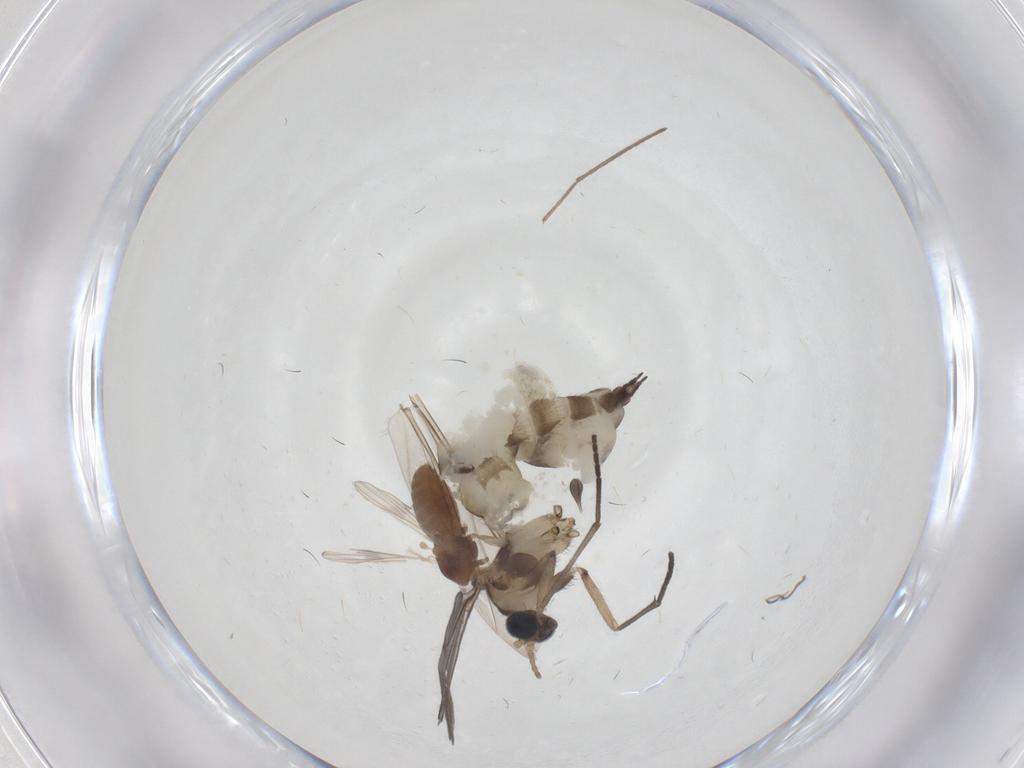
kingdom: Animalia
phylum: Arthropoda
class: Insecta
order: Diptera
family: Chironomidae
